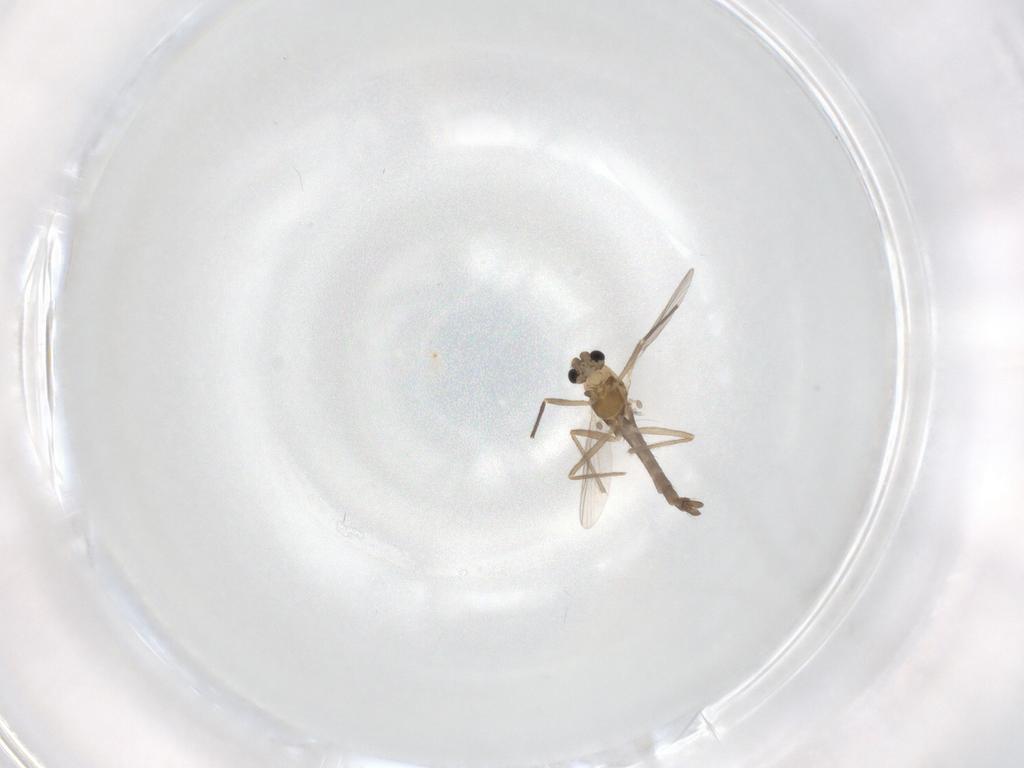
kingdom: Animalia
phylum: Arthropoda
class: Insecta
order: Diptera
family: Chironomidae
